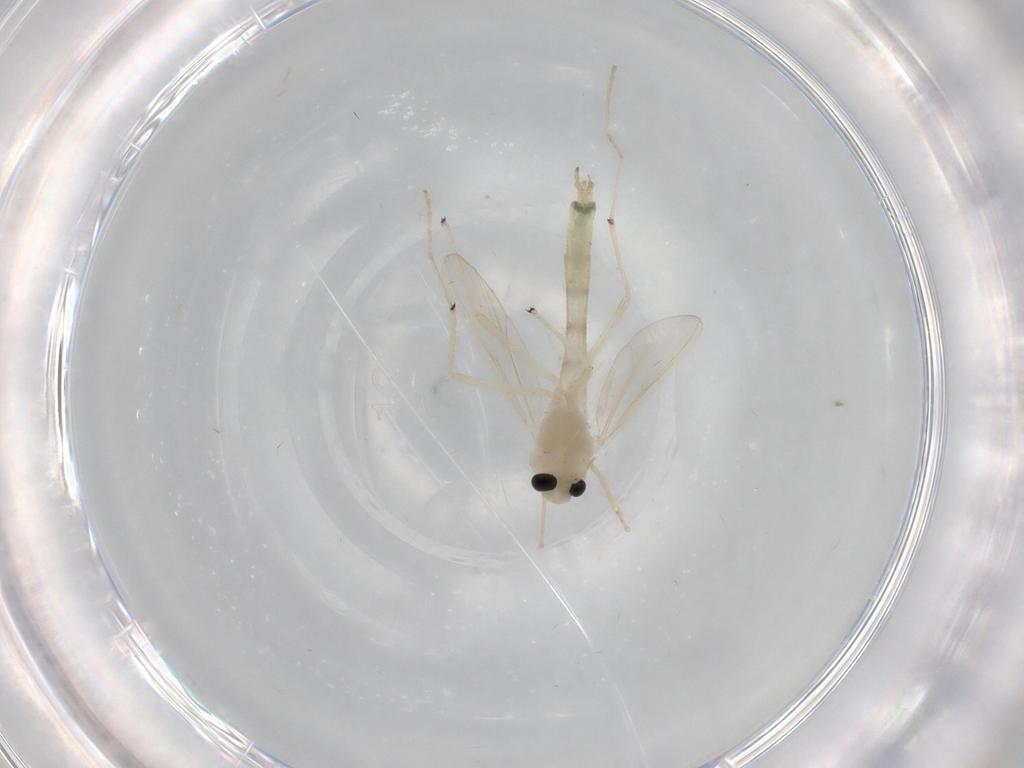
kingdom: Animalia
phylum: Arthropoda
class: Insecta
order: Diptera
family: Chironomidae
